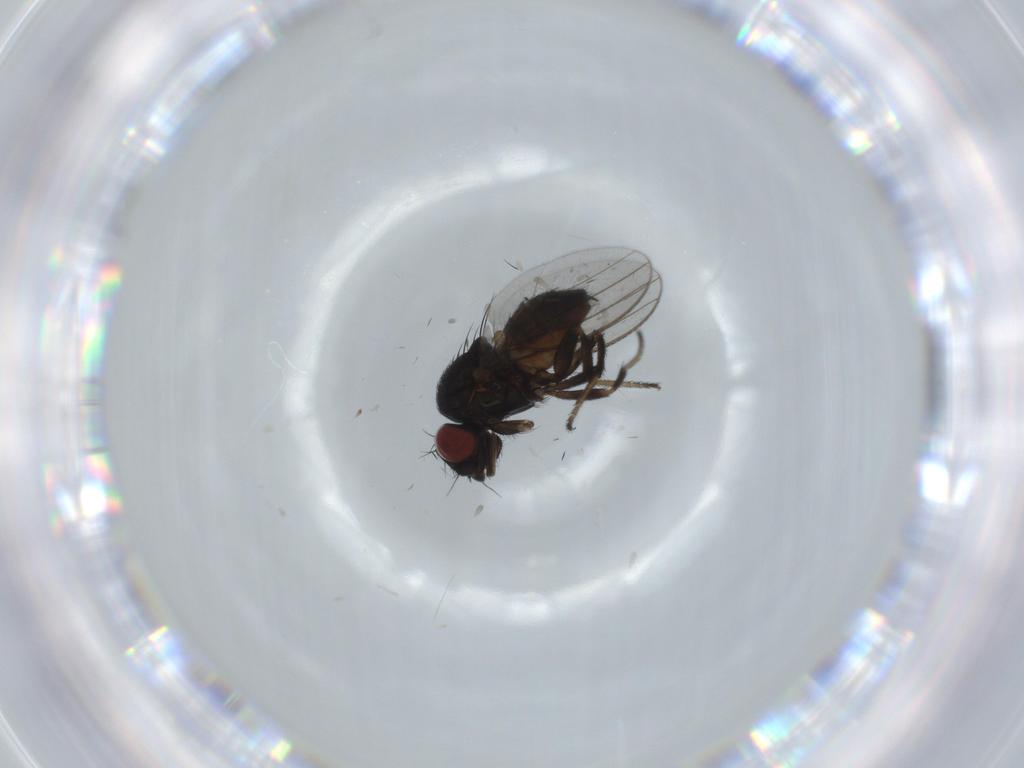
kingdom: Animalia
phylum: Arthropoda
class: Insecta
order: Diptera
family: Milichiidae
